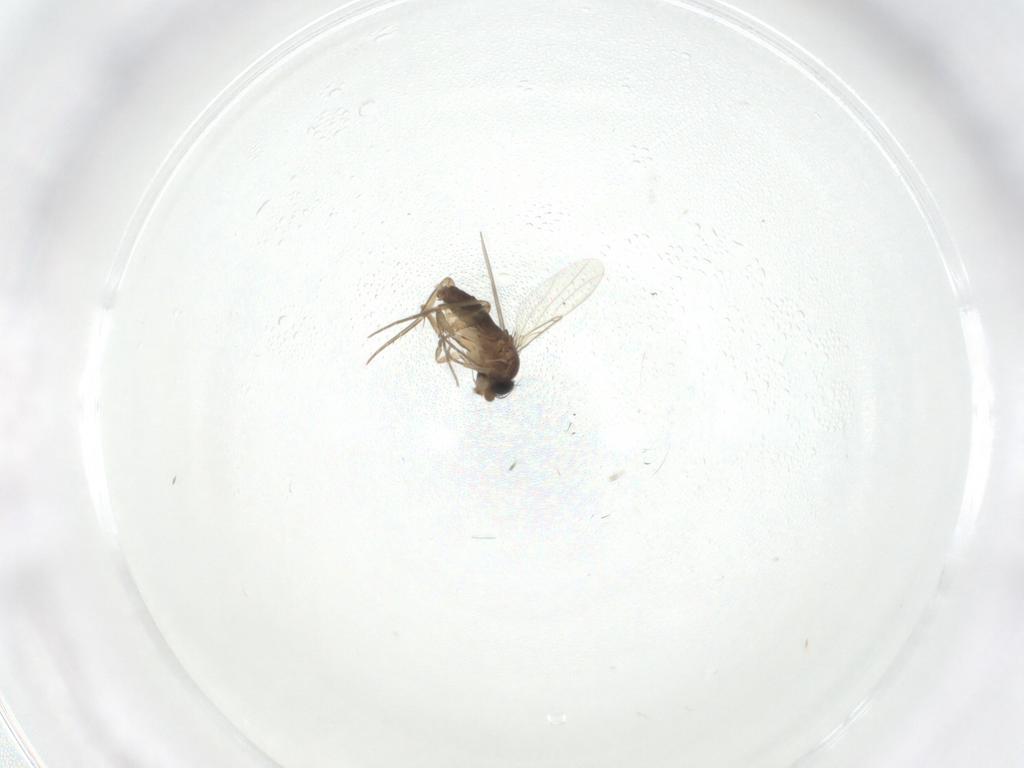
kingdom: Animalia
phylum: Arthropoda
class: Insecta
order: Diptera
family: Phoridae
